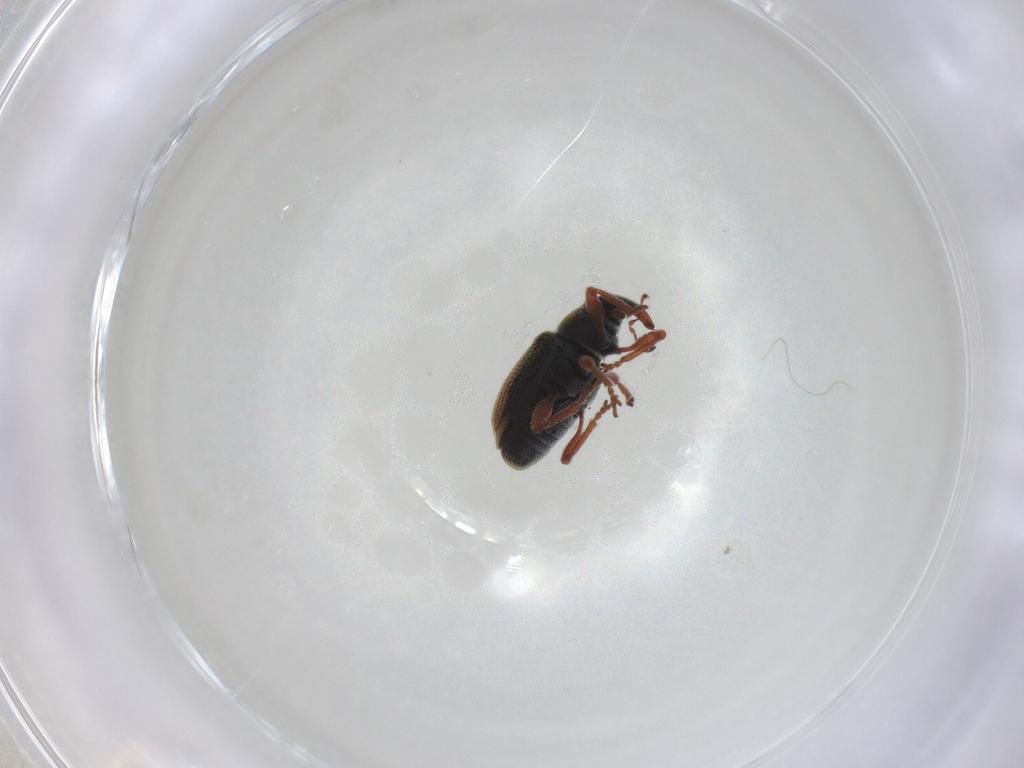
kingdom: Animalia
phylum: Arthropoda
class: Insecta
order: Coleoptera
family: Curculionidae
